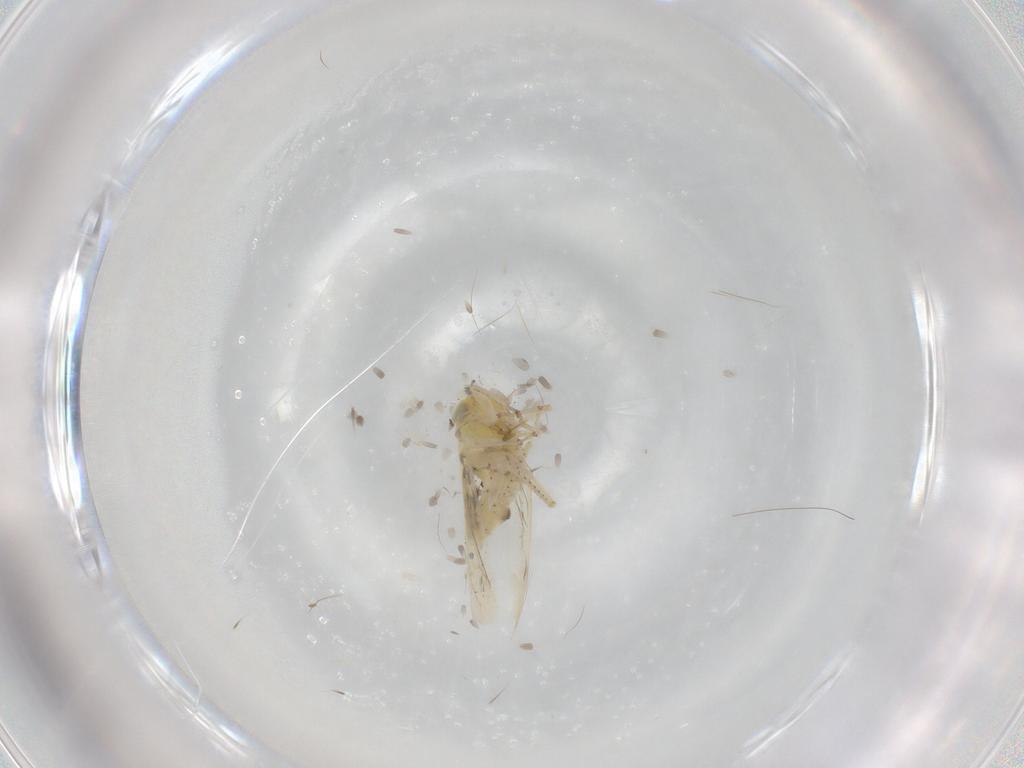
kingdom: Animalia
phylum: Arthropoda
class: Insecta
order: Hemiptera
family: Cicadellidae
